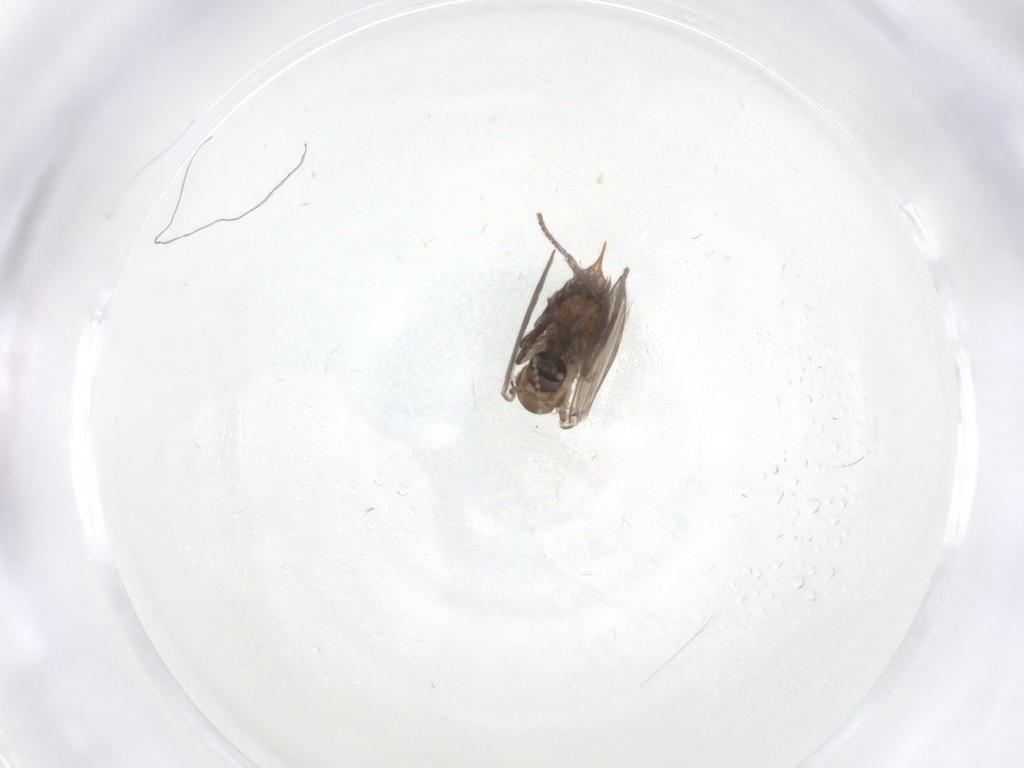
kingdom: Animalia
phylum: Arthropoda
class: Insecta
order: Diptera
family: Psychodidae
